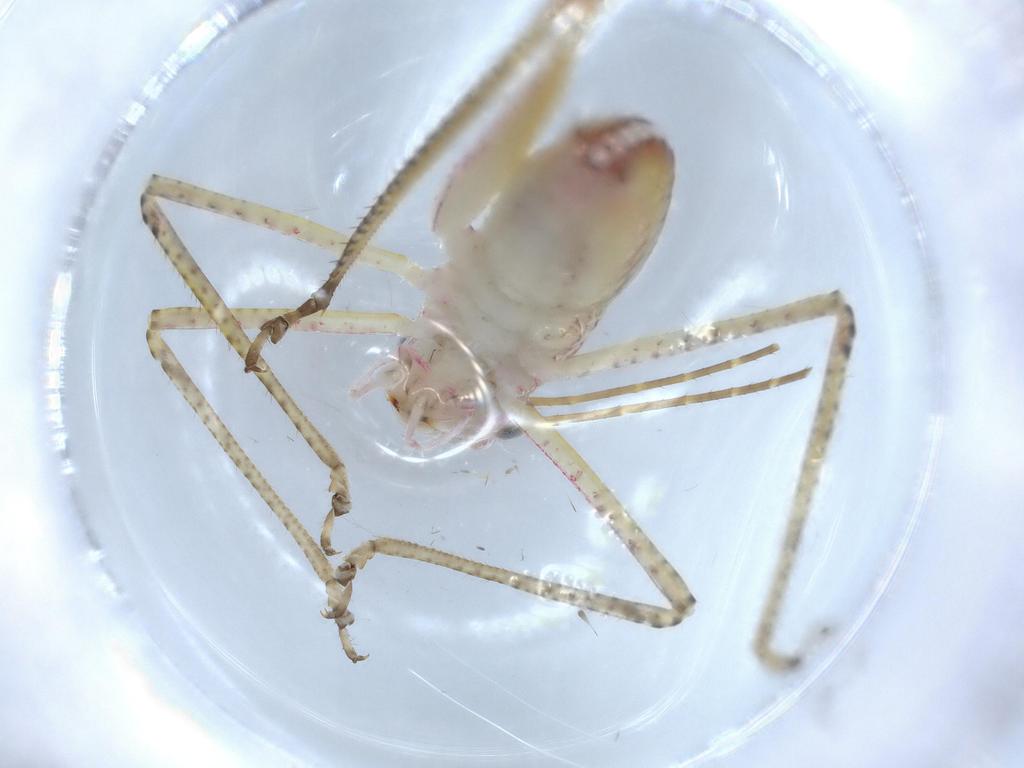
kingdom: Animalia
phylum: Arthropoda
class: Insecta
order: Orthoptera
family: Tettigoniidae
